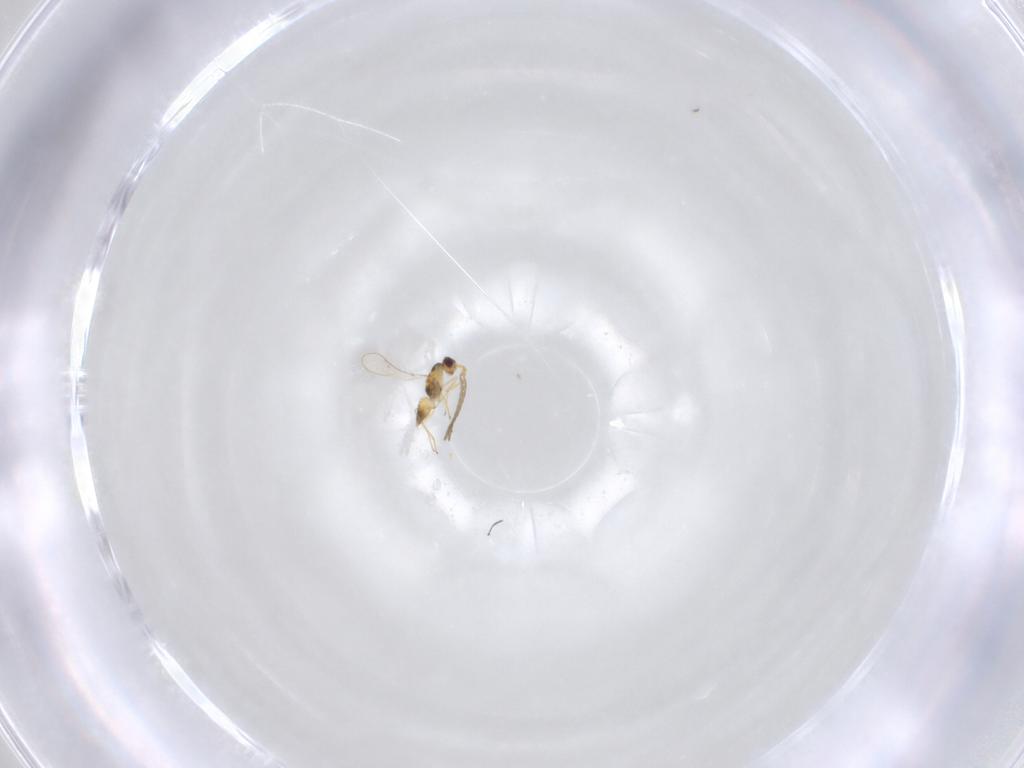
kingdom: Animalia
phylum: Arthropoda
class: Insecta
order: Hymenoptera
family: Mymaridae
